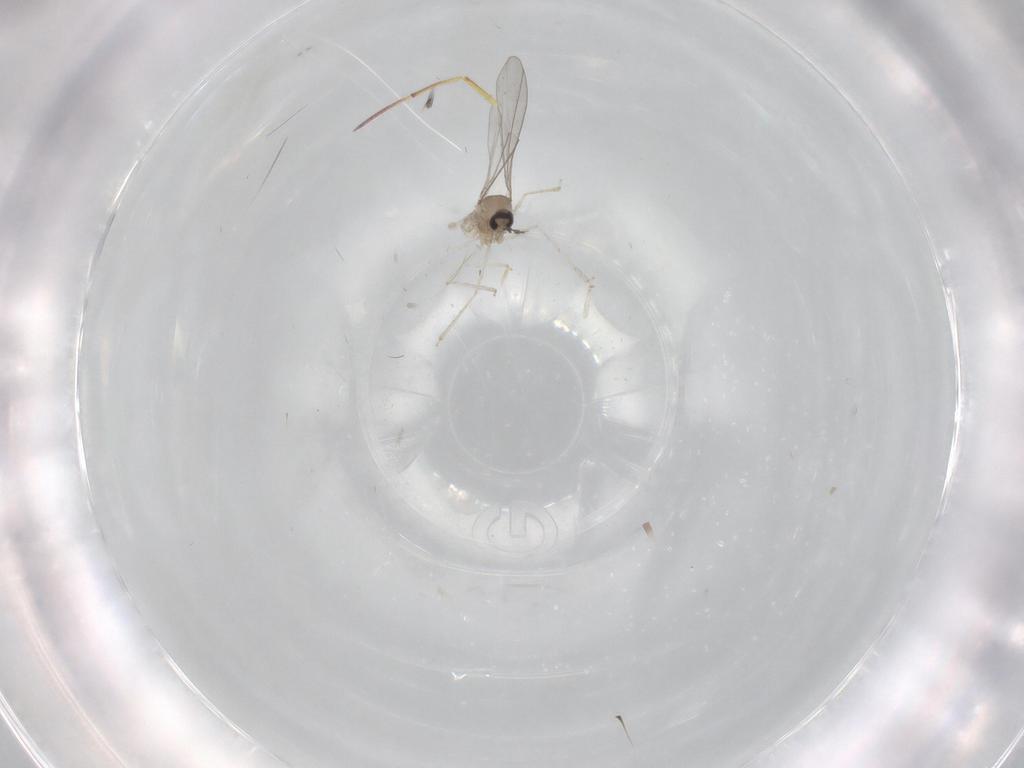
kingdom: Animalia
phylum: Arthropoda
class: Insecta
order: Diptera
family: Cecidomyiidae
